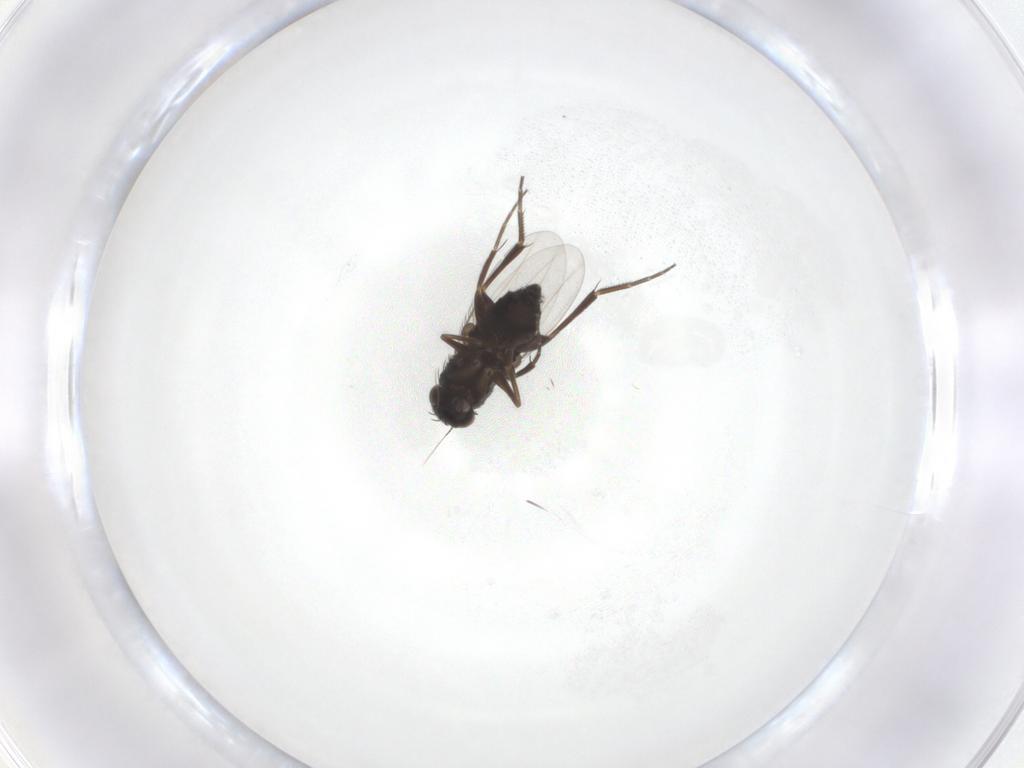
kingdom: Animalia
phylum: Arthropoda
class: Insecta
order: Diptera
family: Phoridae
